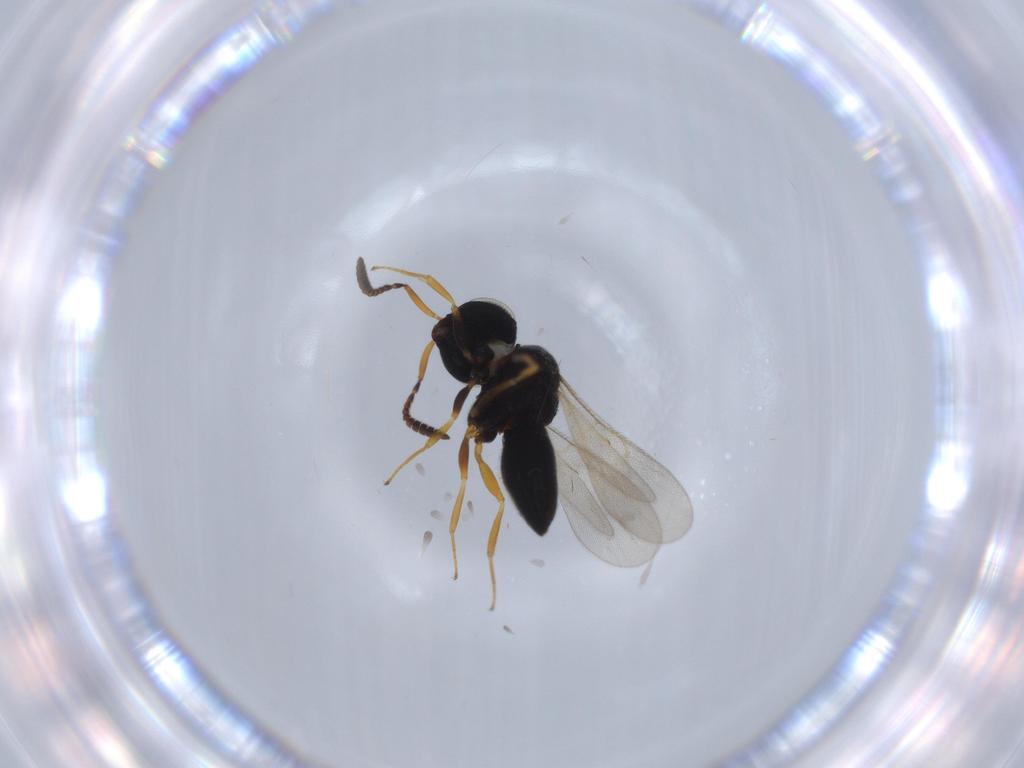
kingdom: Animalia
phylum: Arthropoda
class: Insecta
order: Hymenoptera
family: Scelionidae
